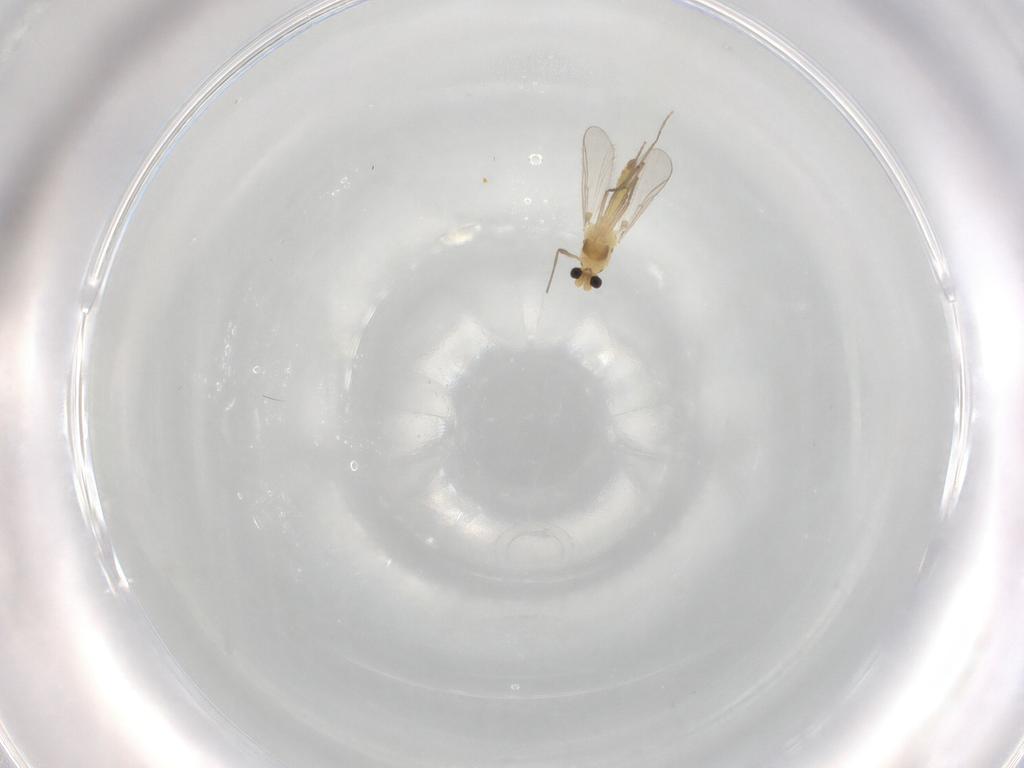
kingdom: Animalia
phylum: Arthropoda
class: Insecta
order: Diptera
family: Chironomidae
